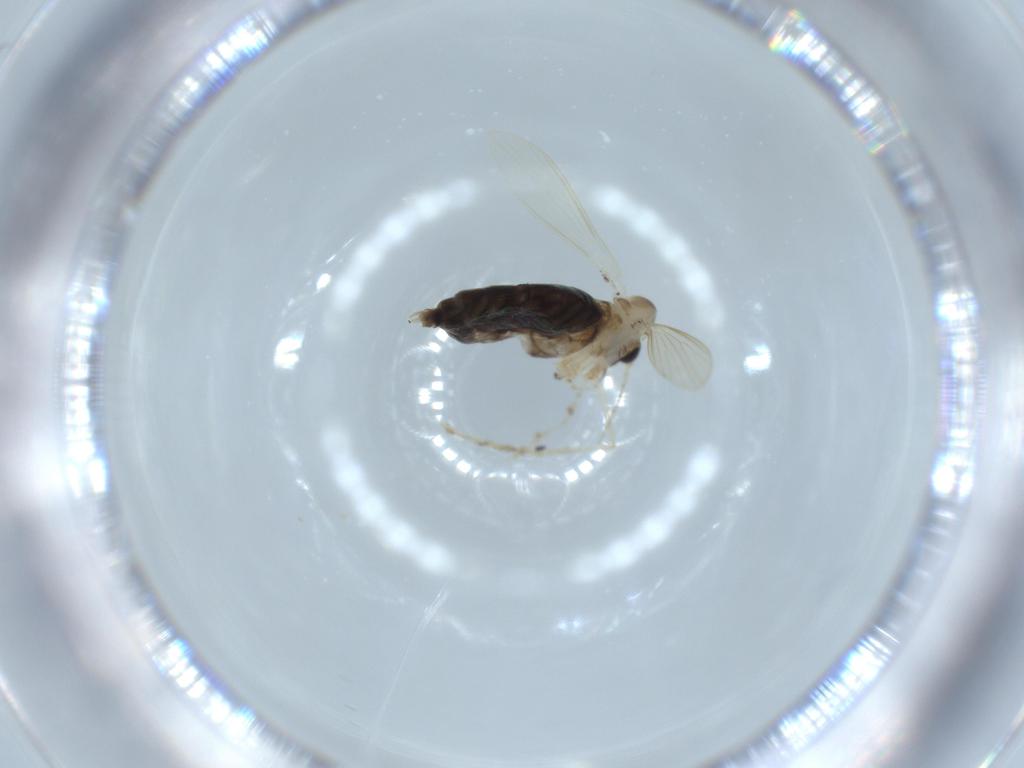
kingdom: Animalia
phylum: Arthropoda
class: Insecta
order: Diptera
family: Psychodidae
